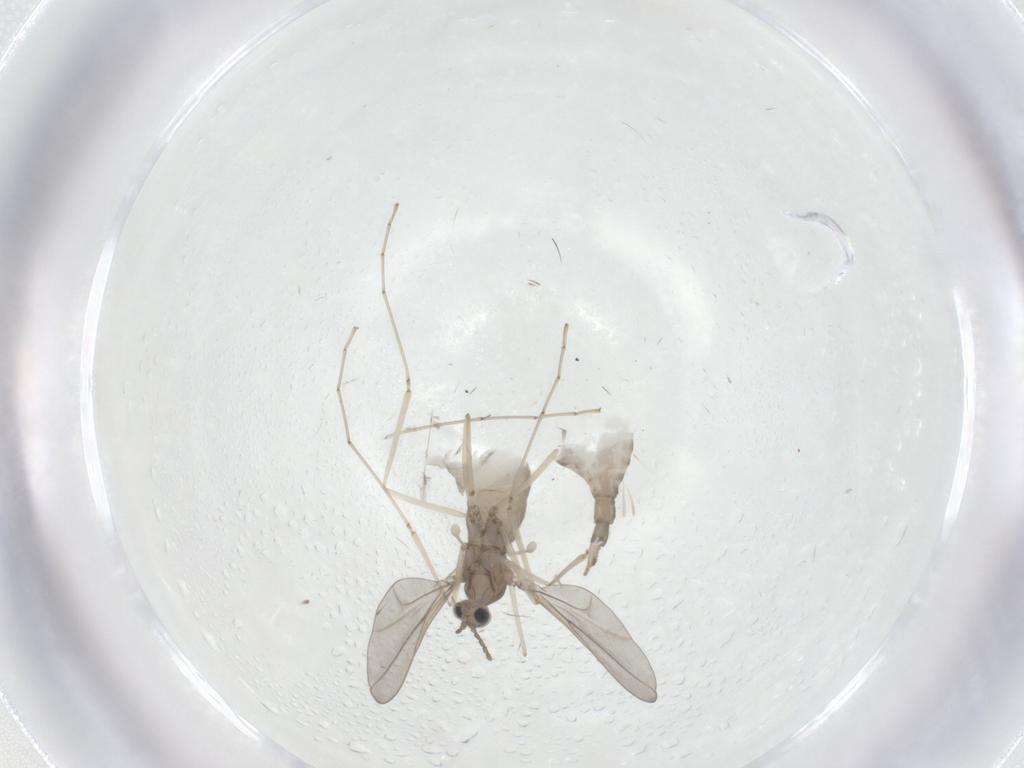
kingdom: Animalia
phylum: Arthropoda
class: Insecta
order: Diptera
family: Cecidomyiidae
